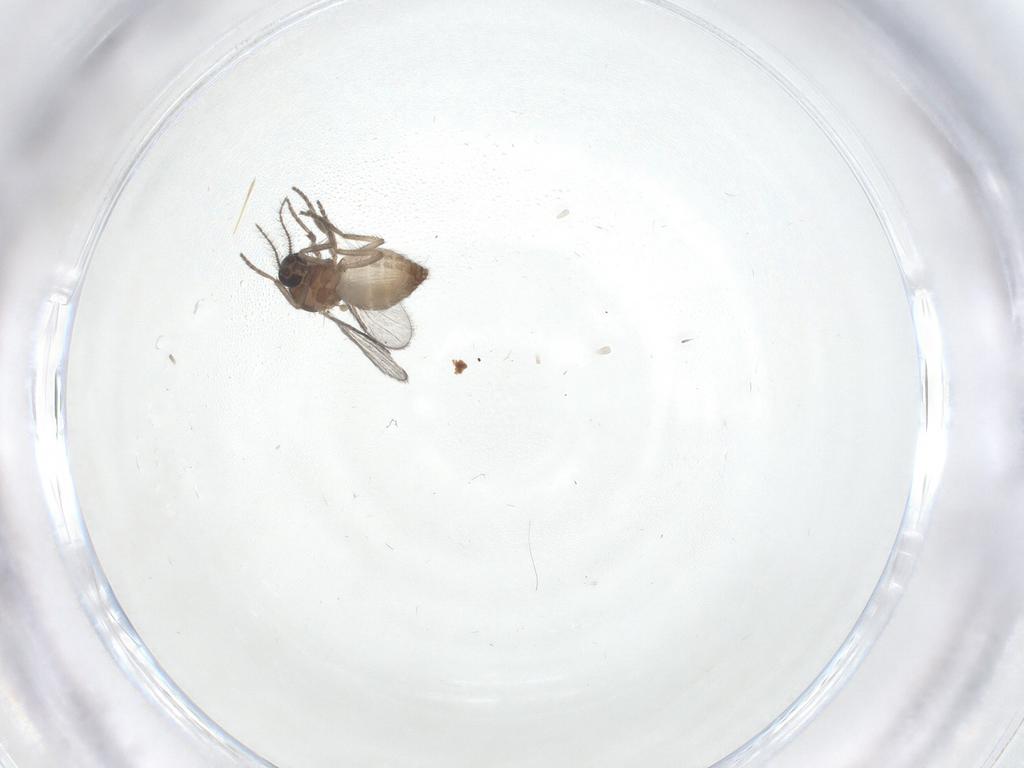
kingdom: Animalia
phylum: Arthropoda
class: Insecta
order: Diptera
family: Ceratopogonidae
